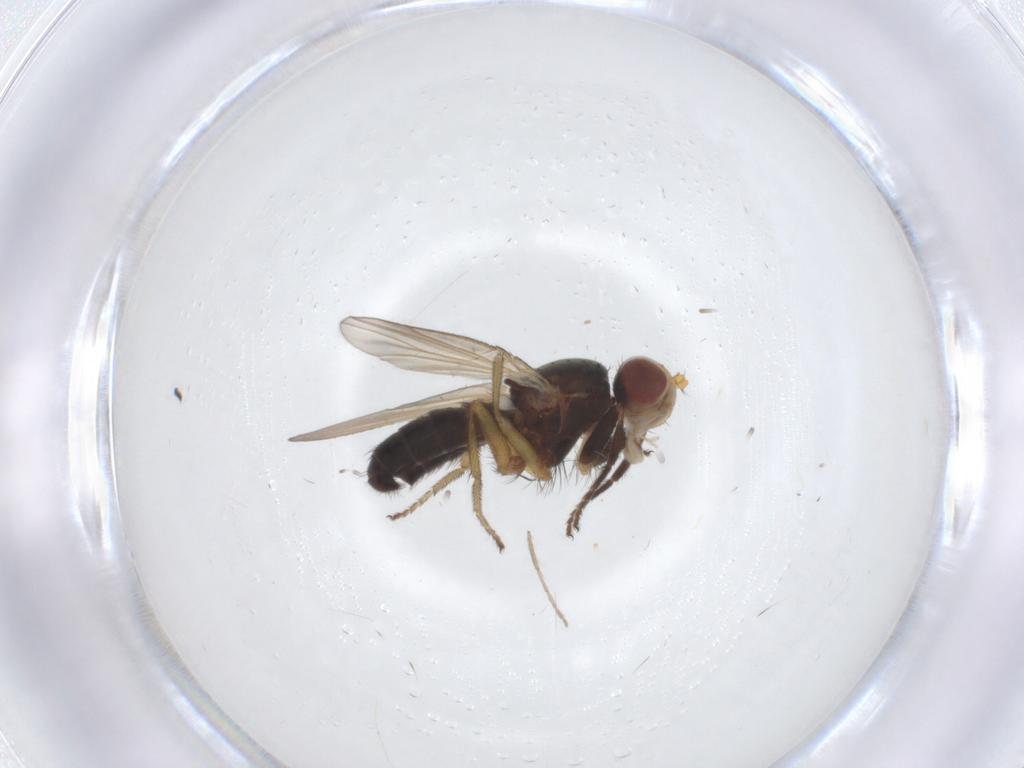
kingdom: Animalia
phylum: Arthropoda
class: Insecta
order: Diptera
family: Heleomyzidae
